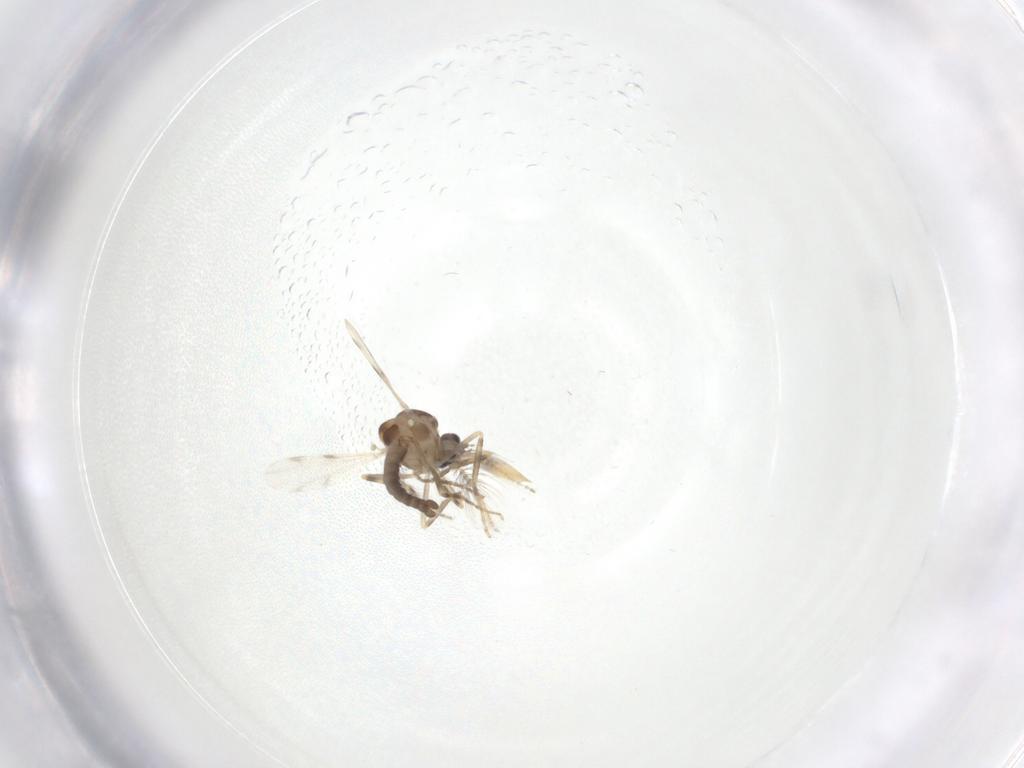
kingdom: Animalia
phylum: Arthropoda
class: Insecta
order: Diptera
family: Ceratopogonidae
